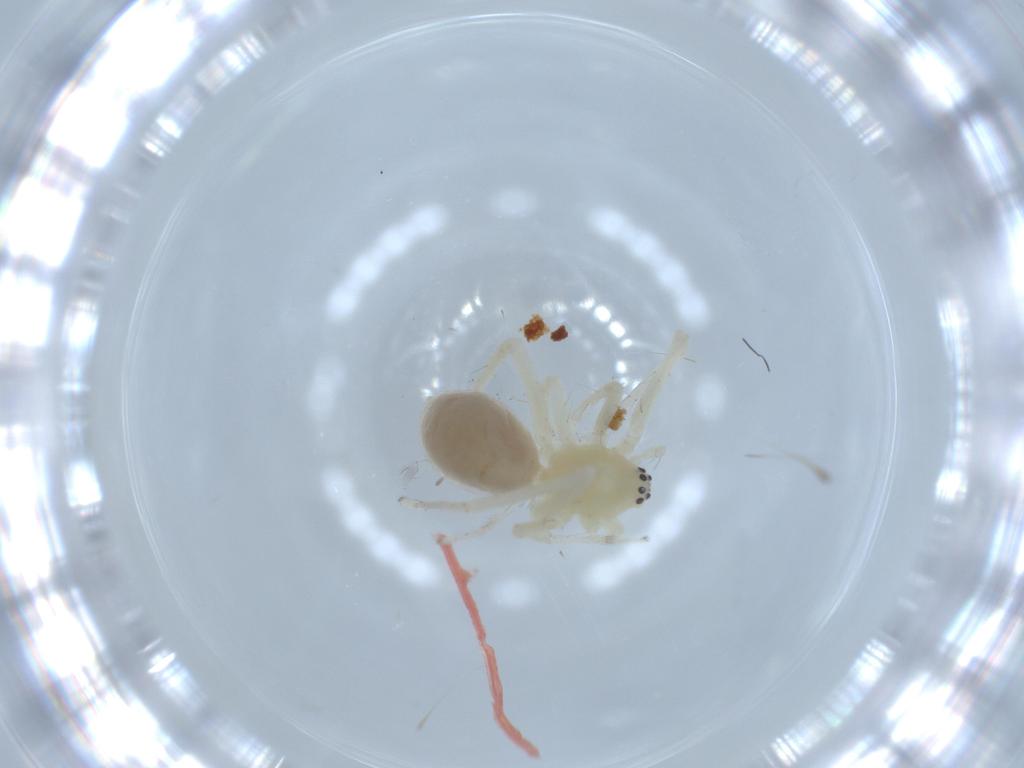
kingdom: Animalia
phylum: Arthropoda
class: Arachnida
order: Araneae
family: Anyphaenidae
